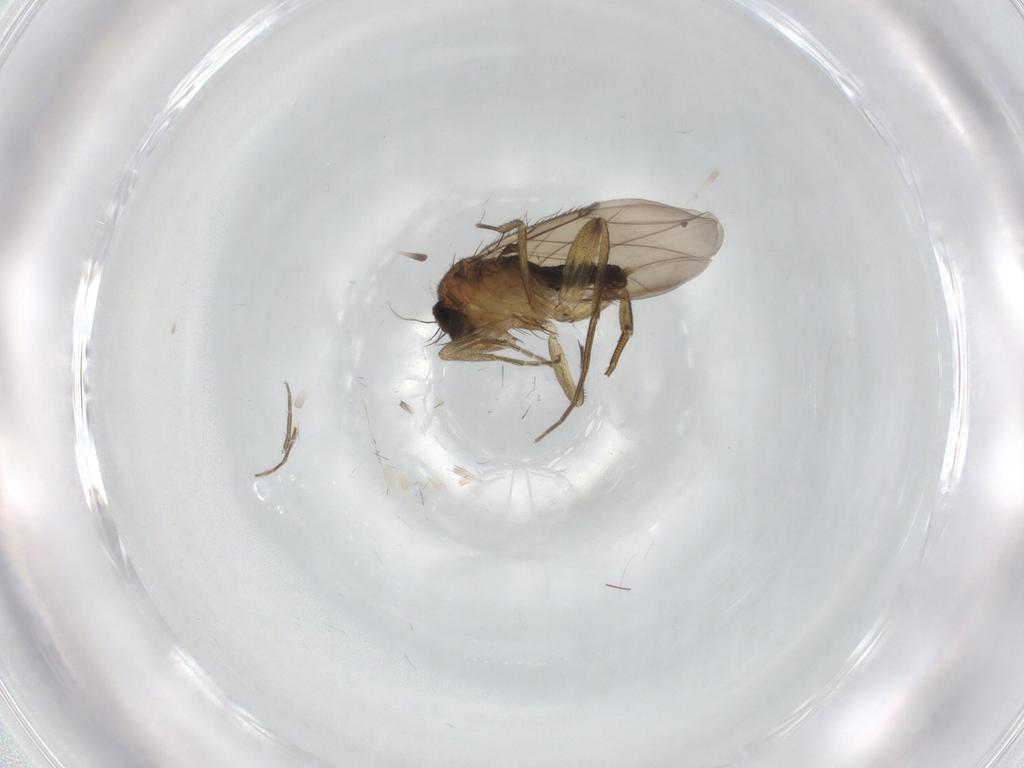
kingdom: Animalia
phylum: Arthropoda
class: Insecta
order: Diptera
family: Phoridae
